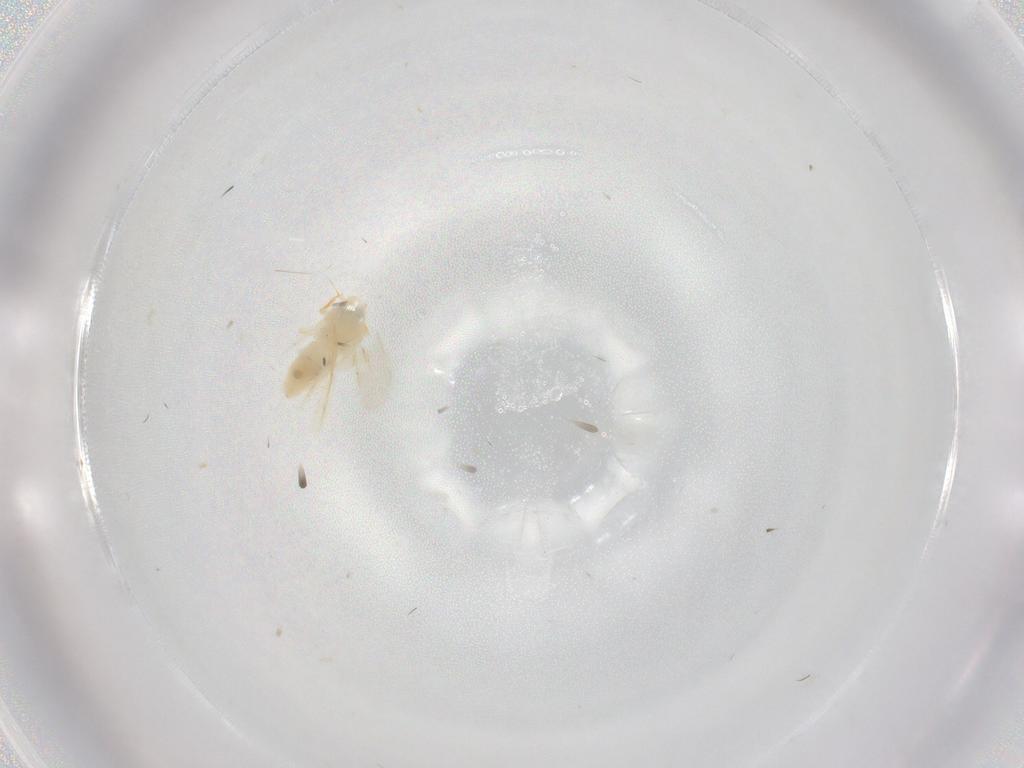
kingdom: Animalia
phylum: Arthropoda
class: Insecta
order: Hemiptera
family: Aleyrodidae
